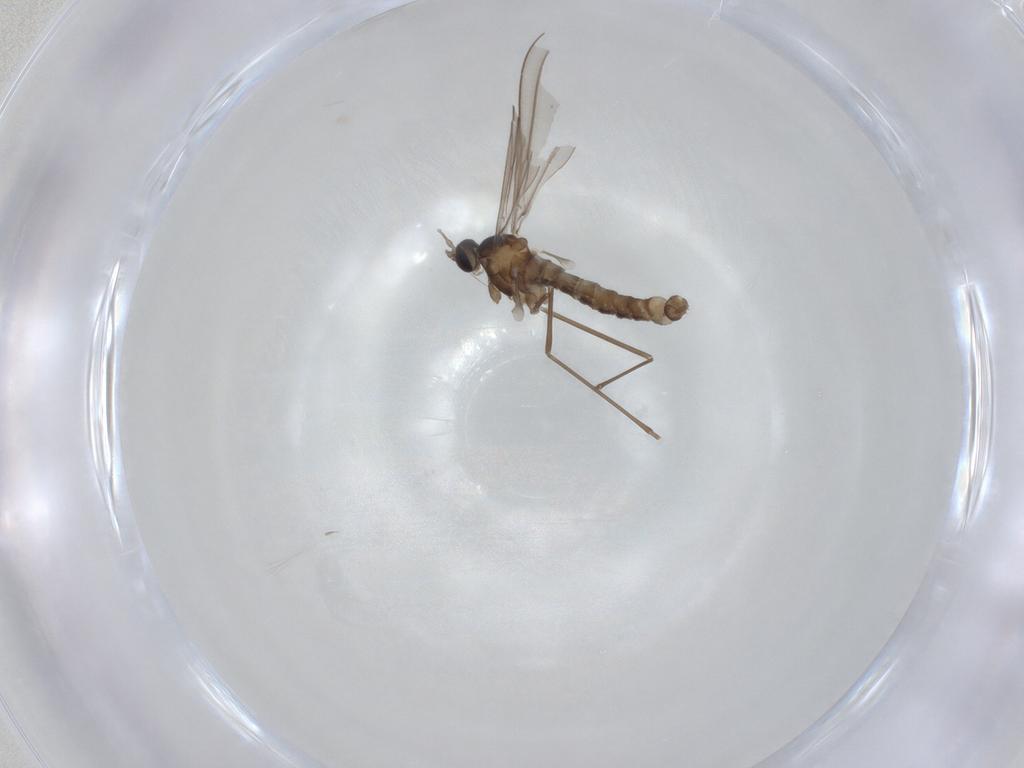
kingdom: Animalia
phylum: Arthropoda
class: Insecta
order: Diptera
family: Cecidomyiidae
